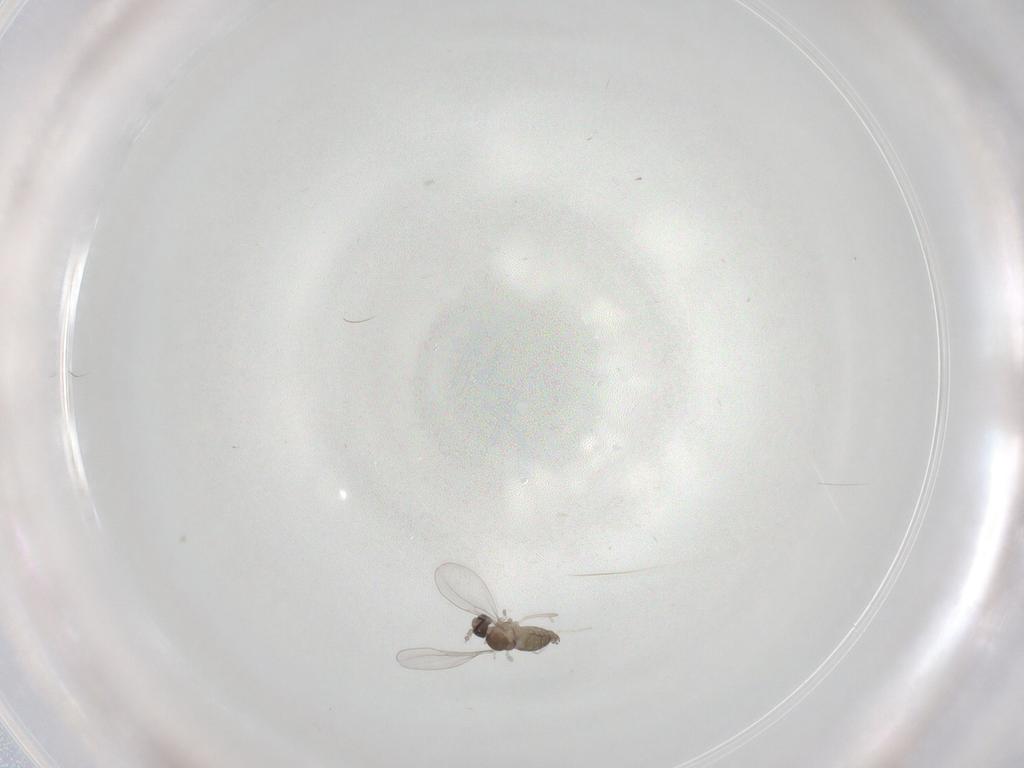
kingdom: Animalia
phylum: Arthropoda
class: Insecta
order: Diptera
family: Cecidomyiidae
